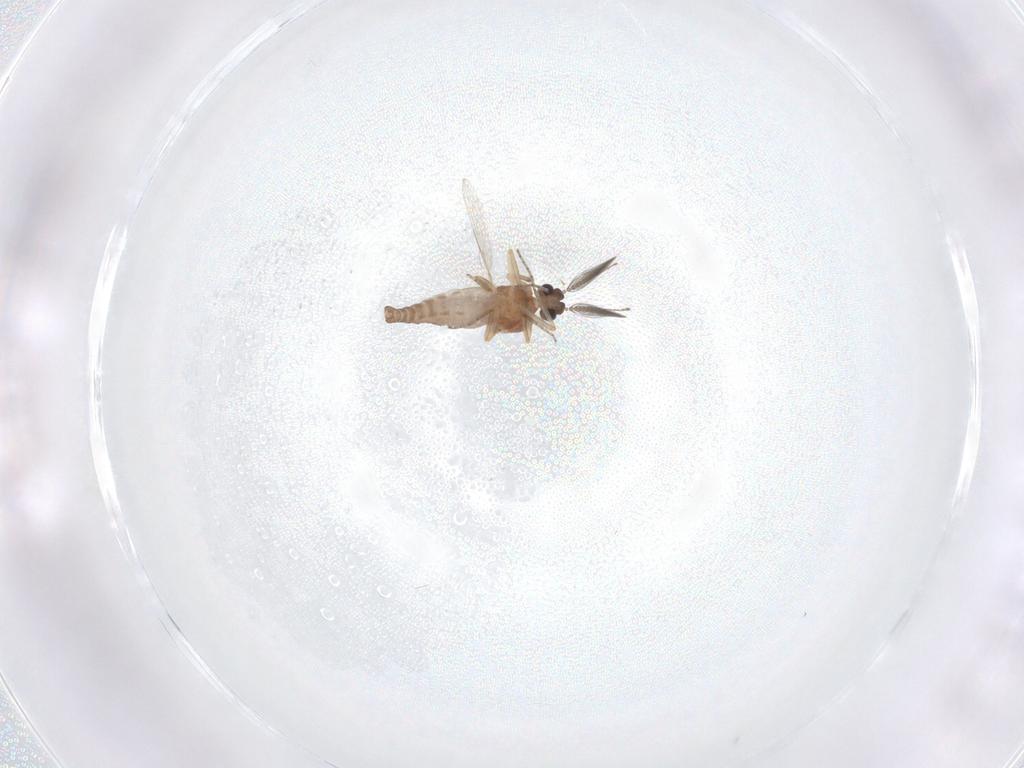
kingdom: Animalia
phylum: Arthropoda
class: Insecta
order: Diptera
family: Ceratopogonidae
